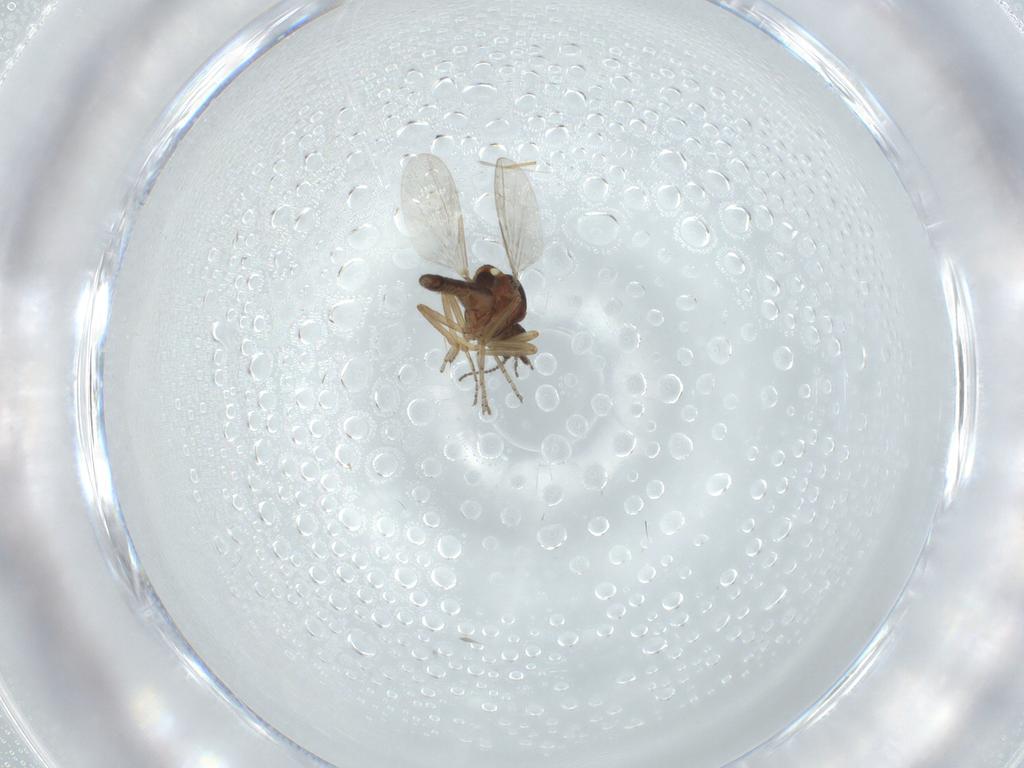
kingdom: Animalia
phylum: Arthropoda
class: Insecta
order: Diptera
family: Ceratopogonidae
